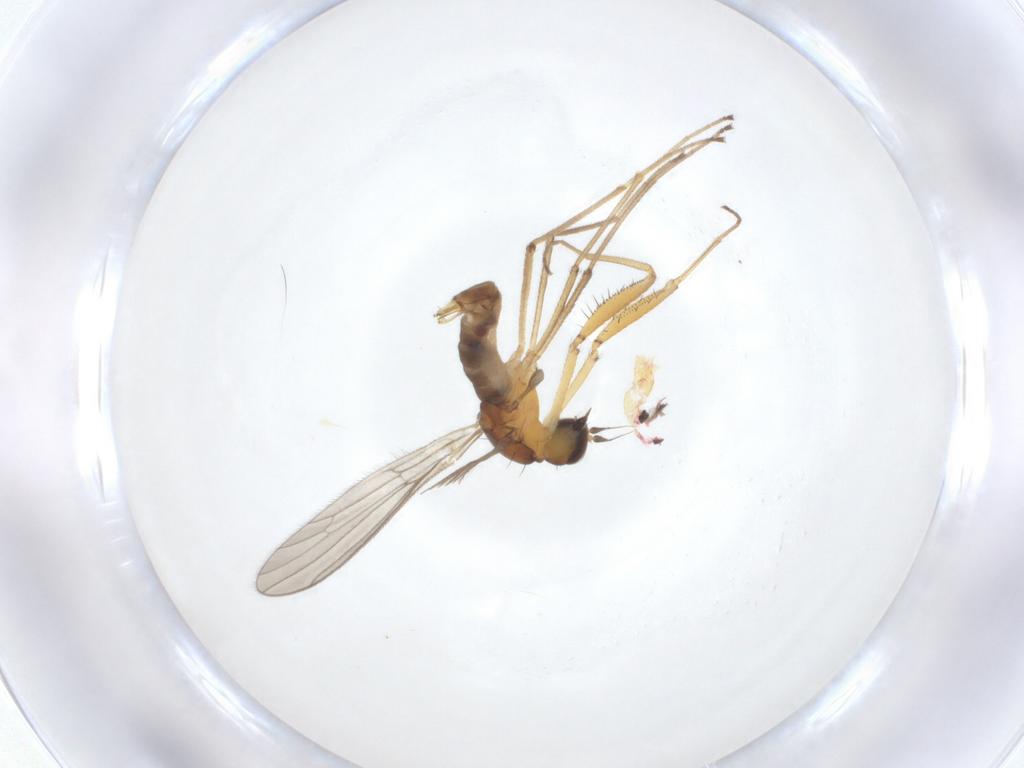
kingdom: Animalia
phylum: Arthropoda
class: Insecta
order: Diptera
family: Empididae
